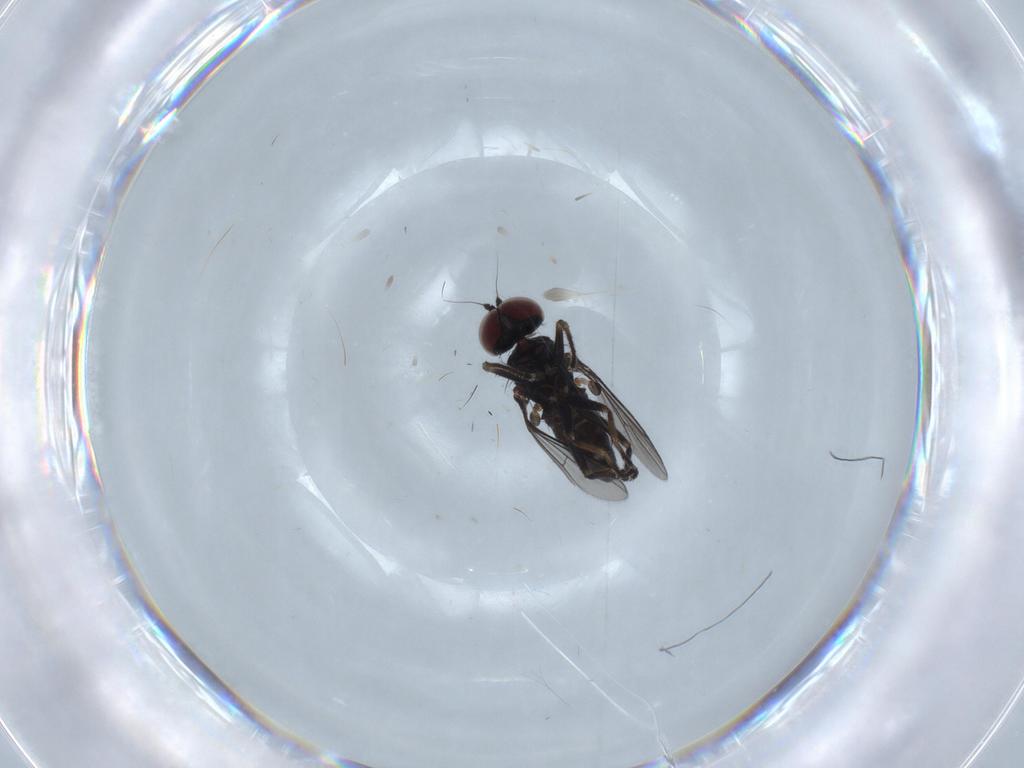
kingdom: Animalia
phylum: Arthropoda
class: Insecta
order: Diptera
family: Dolichopodidae
